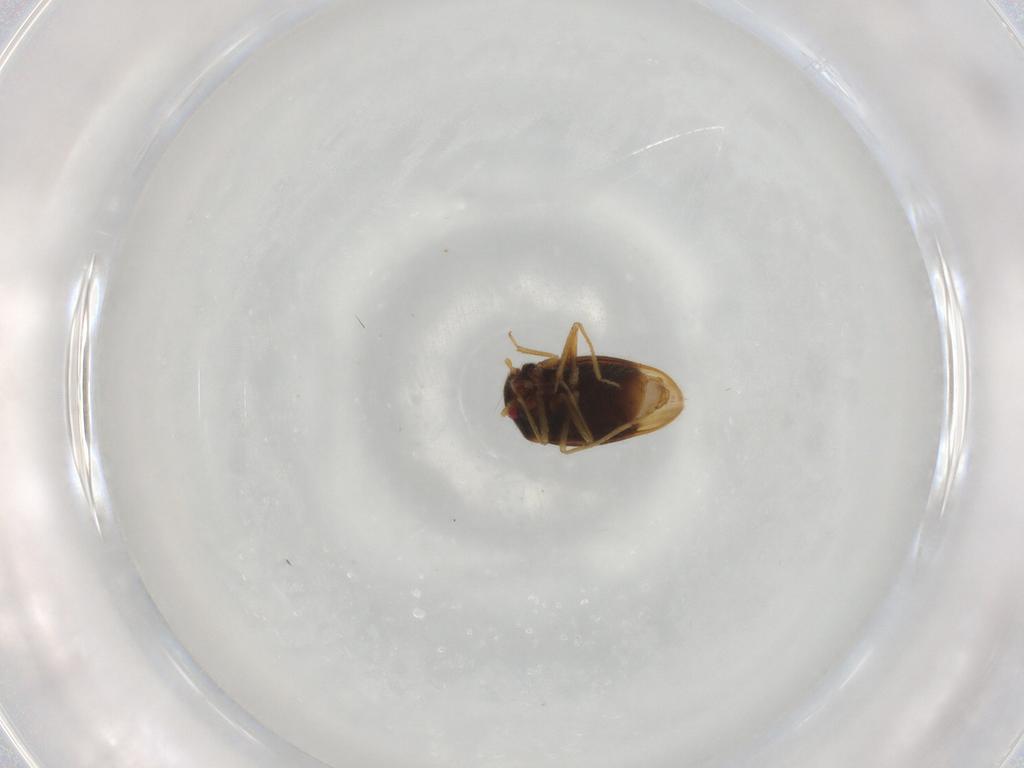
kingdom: Animalia
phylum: Arthropoda
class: Insecta
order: Hemiptera
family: Schizopteridae
